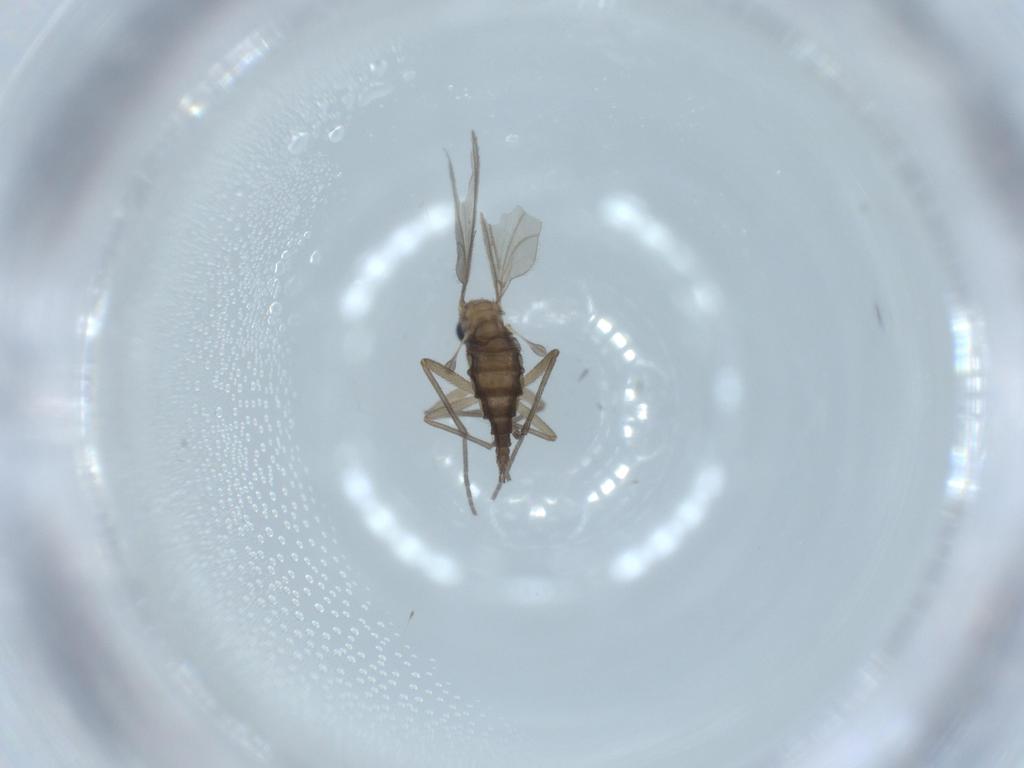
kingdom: Animalia
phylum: Arthropoda
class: Insecta
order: Diptera
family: Sciaridae
